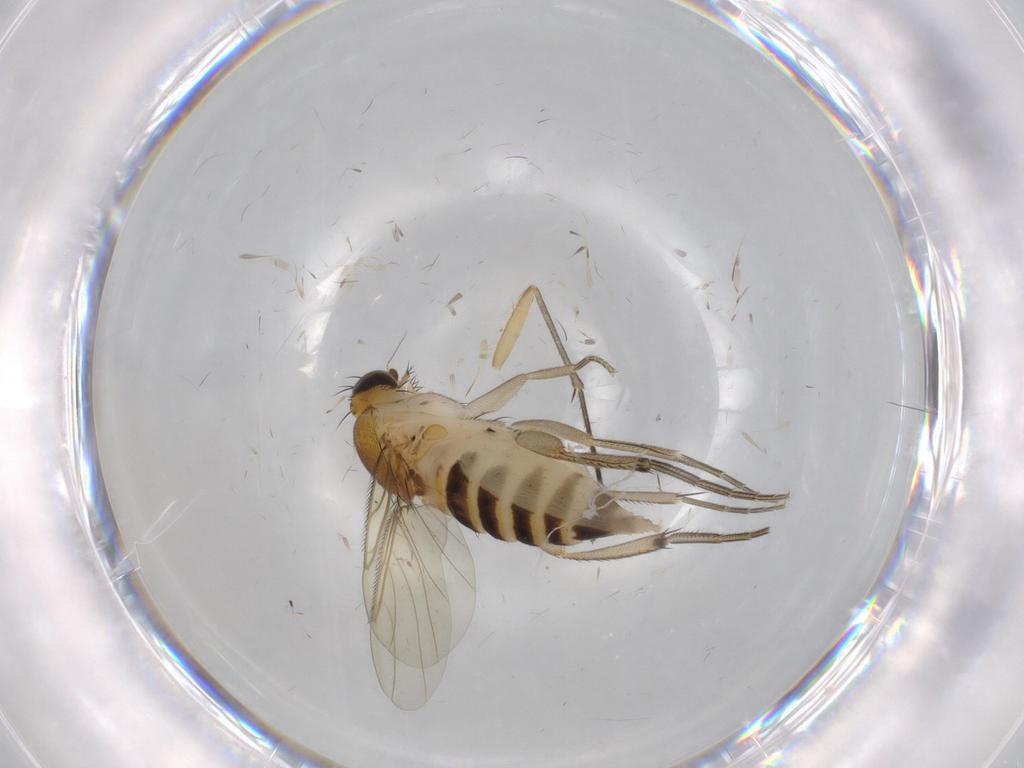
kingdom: Animalia
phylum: Arthropoda
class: Insecta
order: Diptera
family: Phoridae
